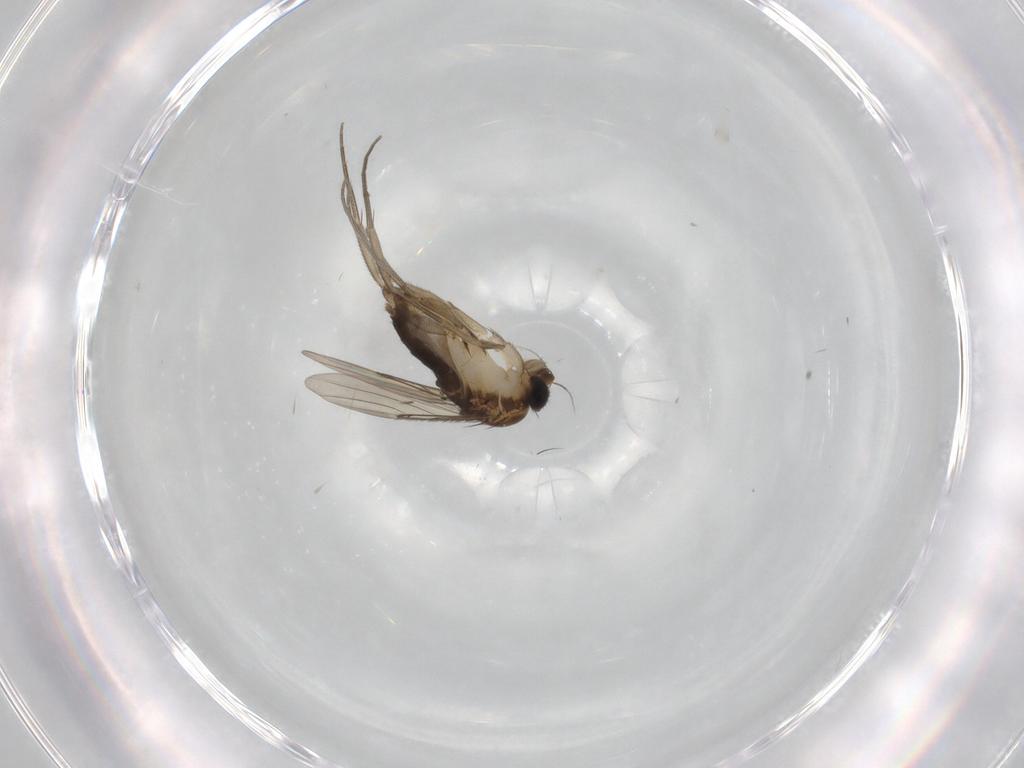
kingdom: Animalia
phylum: Arthropoda
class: Insecta
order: Diptera
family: Phoridae
